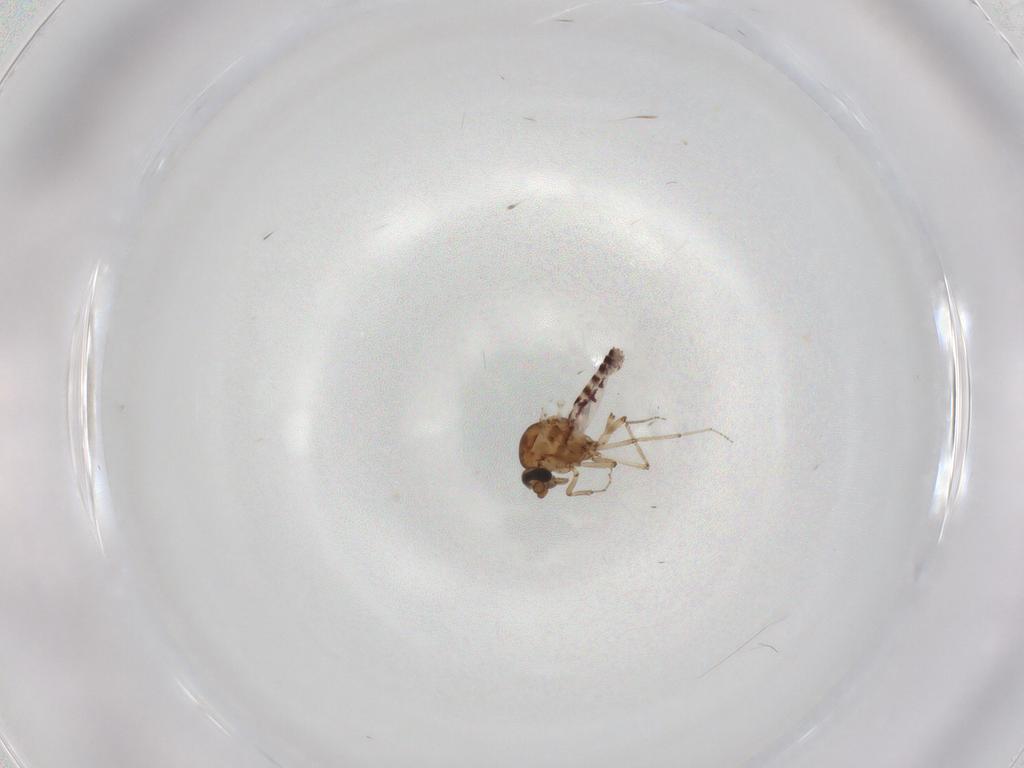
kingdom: Animalia
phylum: Arthropoda
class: Insecta
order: Diptera
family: Ceratopogonidae
